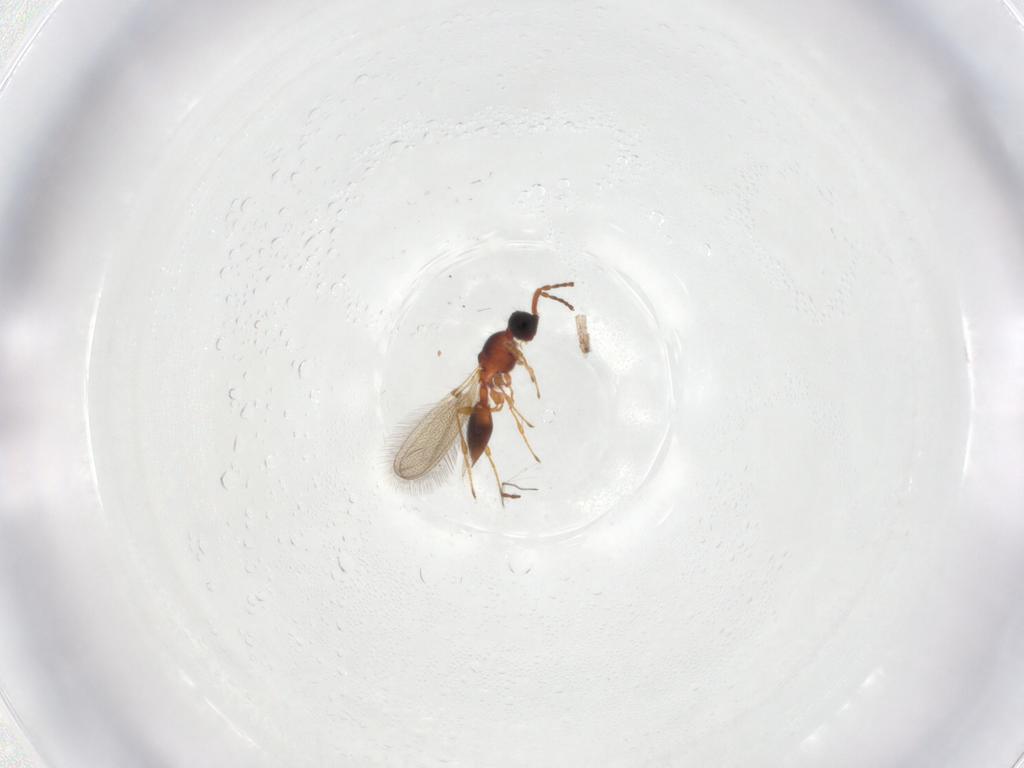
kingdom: Animalia
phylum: Arthropoda
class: Insecta
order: Hymenoptera
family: Diapriidae
